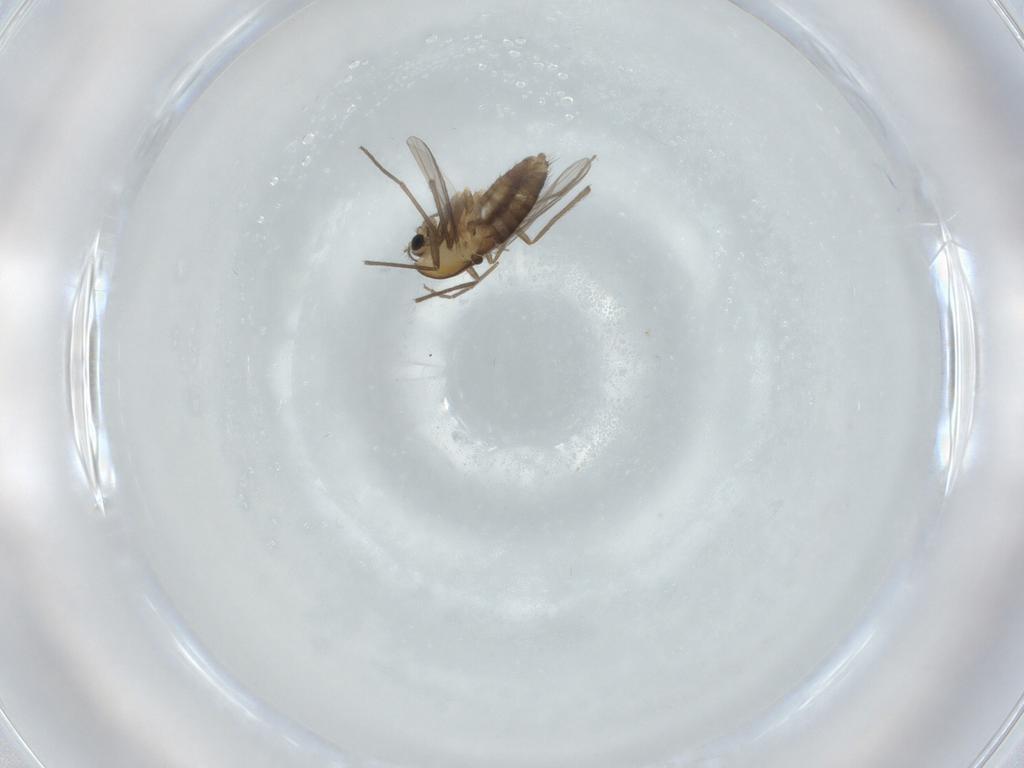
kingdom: Animalia
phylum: Arthropoda
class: Insecta
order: Diptera
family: Chironomidae
